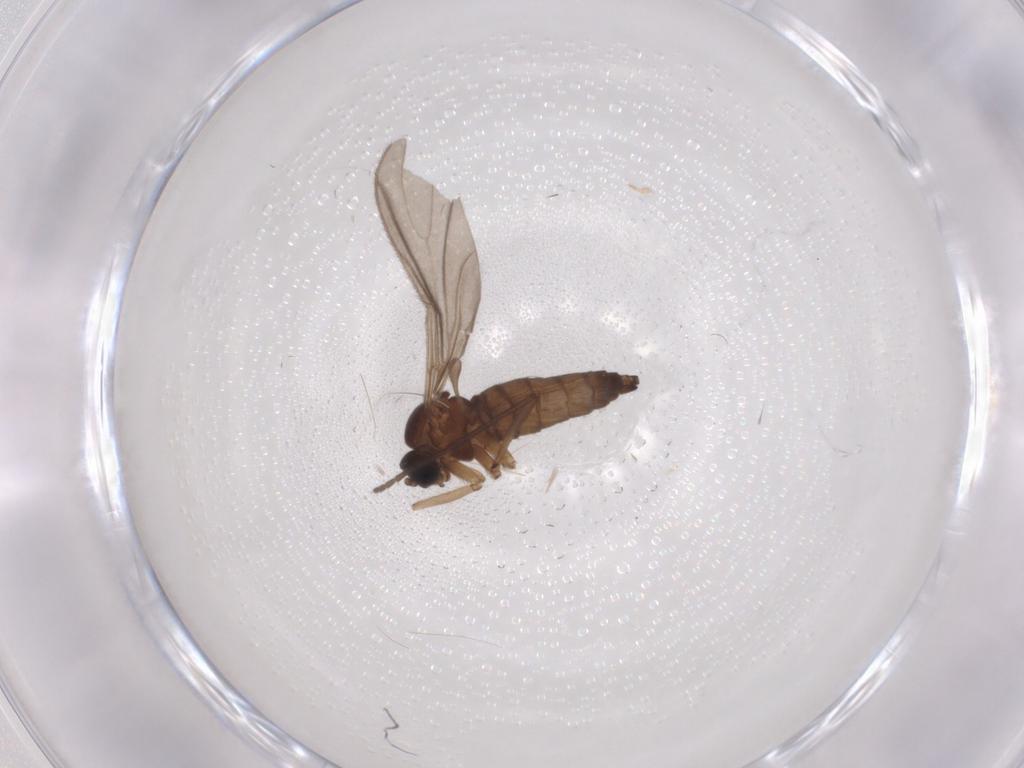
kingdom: Animalia
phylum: Arthropoda
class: Insecta
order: Diptera
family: Sciaridae
